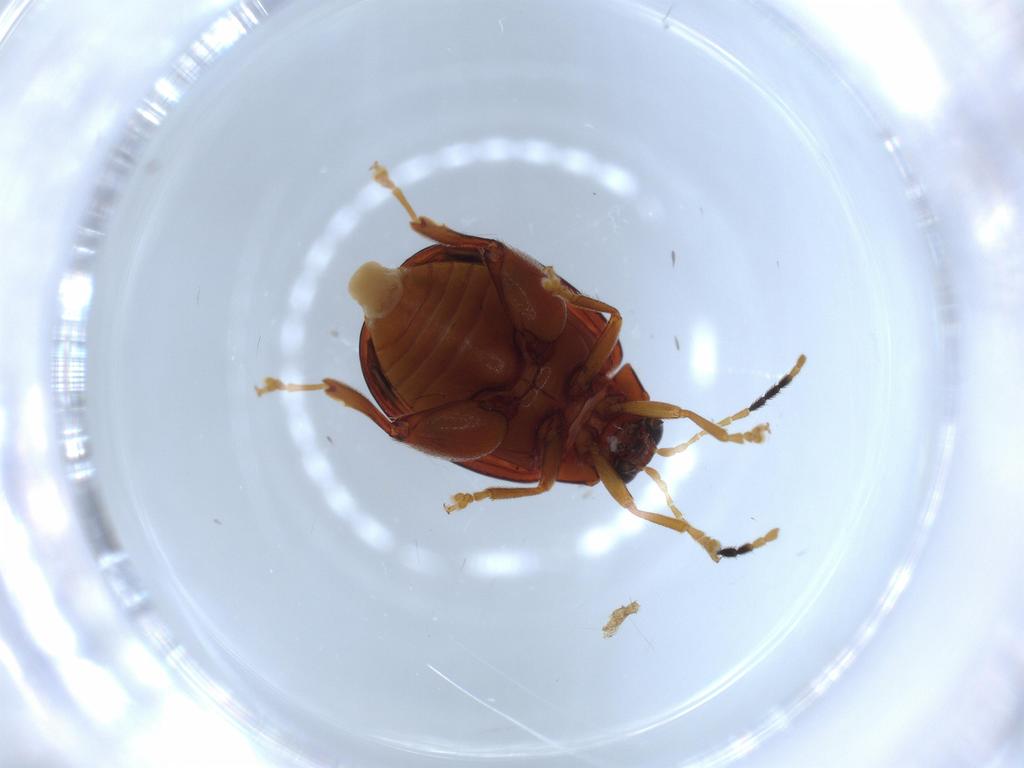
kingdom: Animalia
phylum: Arthropoda
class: Insecta
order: Coleoptera
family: Chrysomelidae
